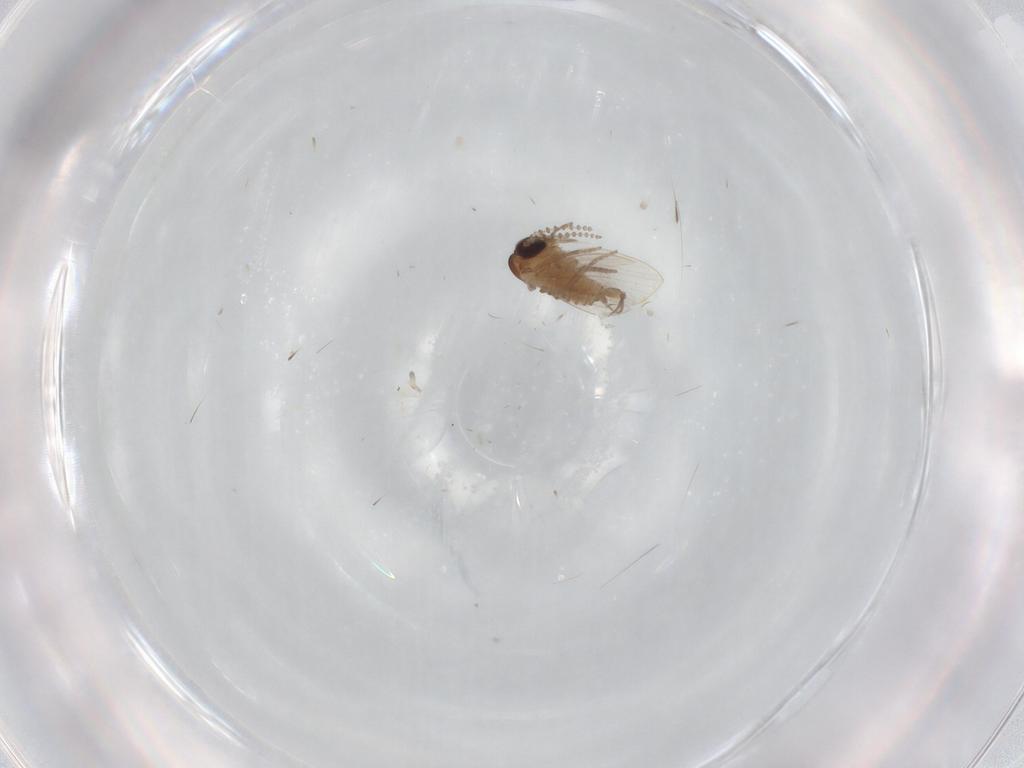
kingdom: Animalia
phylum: Arthropoda
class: Insecta
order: Diptera
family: Psychodidae
